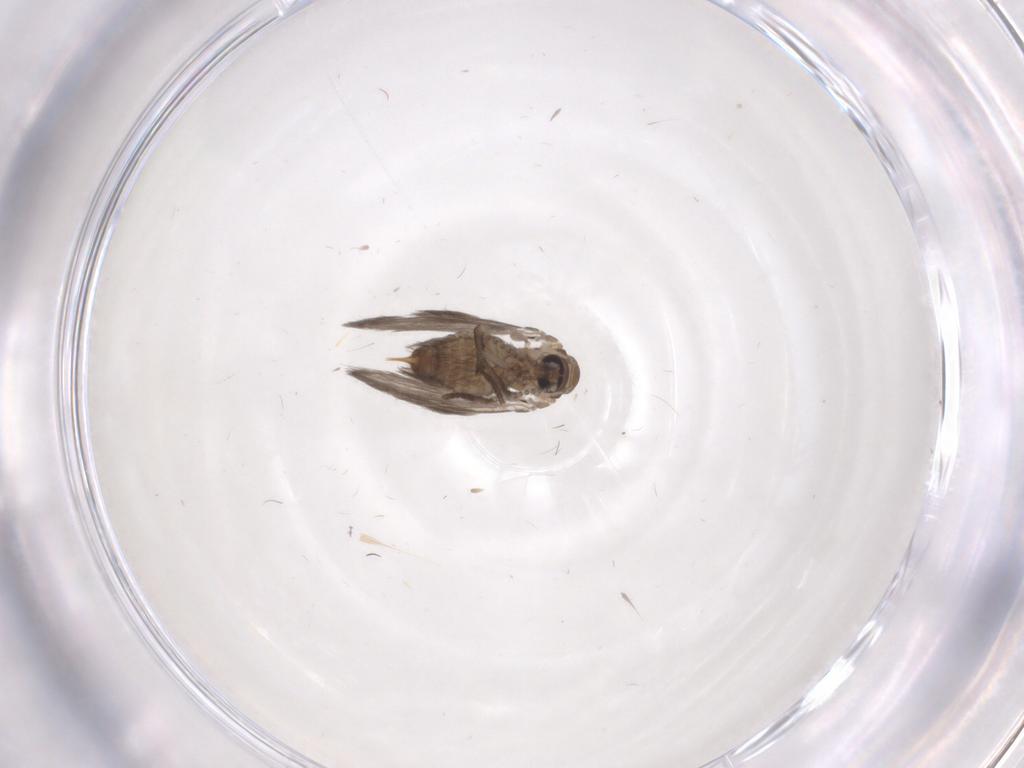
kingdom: Animalia
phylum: Arthropoda
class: Insecta
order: Diptera
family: Psychodidae
